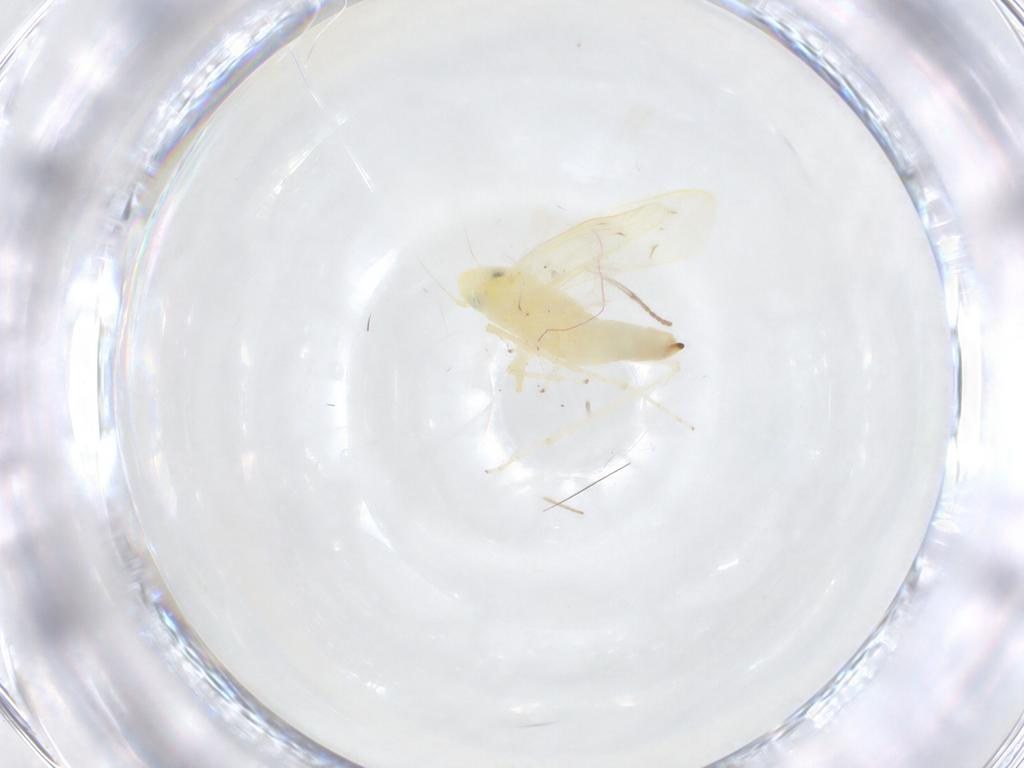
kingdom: Animalia
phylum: Arthropoda
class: Insecta
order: Hemiptera
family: Cicadellidae
